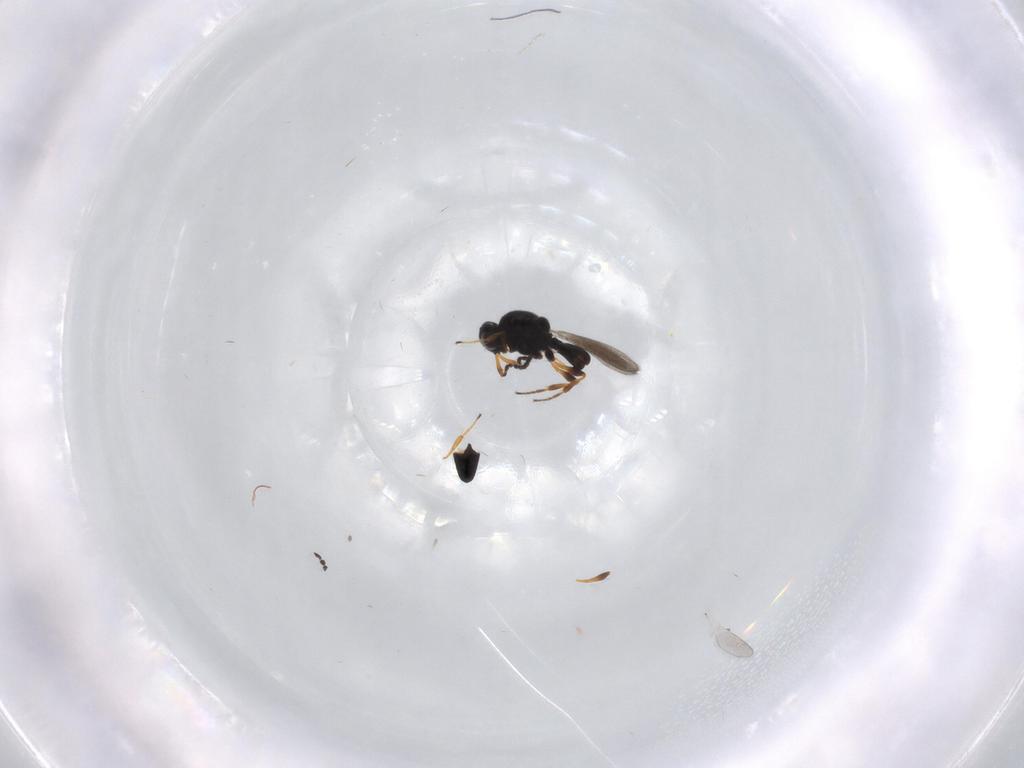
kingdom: Animalia
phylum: Arthropoda
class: Insecta
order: Hymenoptera
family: Platygastridae
